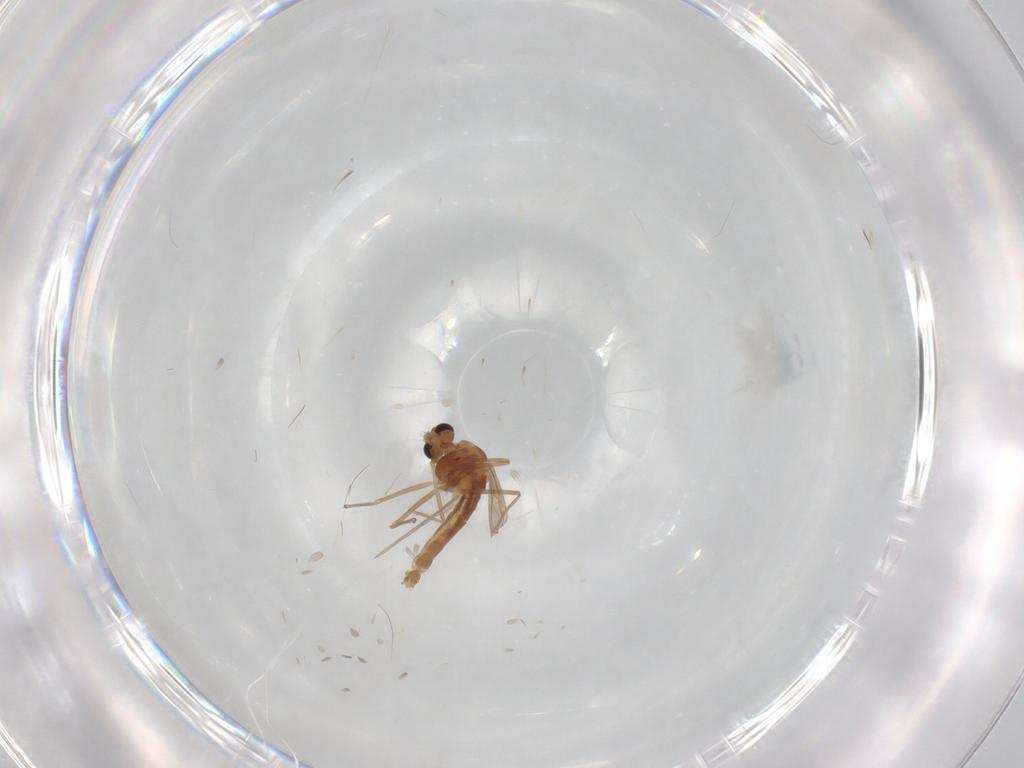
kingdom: Animalia
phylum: Arthropoda
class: Insecta
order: Diptera
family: Chironomidae
